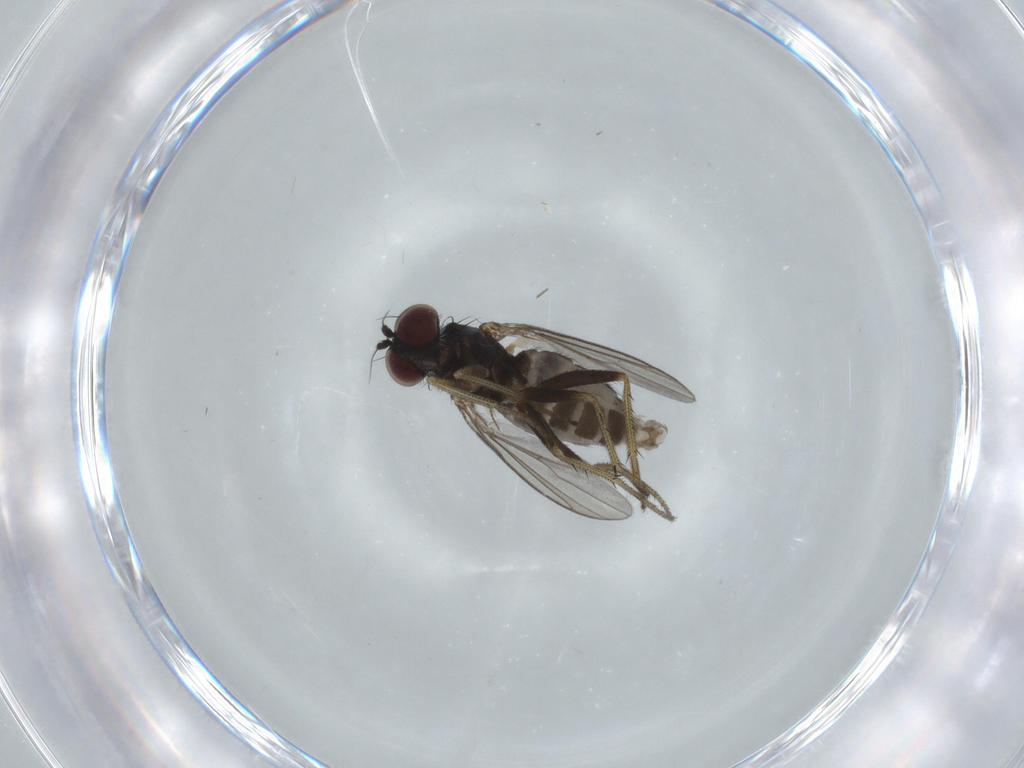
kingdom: Animalia
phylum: Arthropoda
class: Insecta
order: Diptera
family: Dolichopodidae
